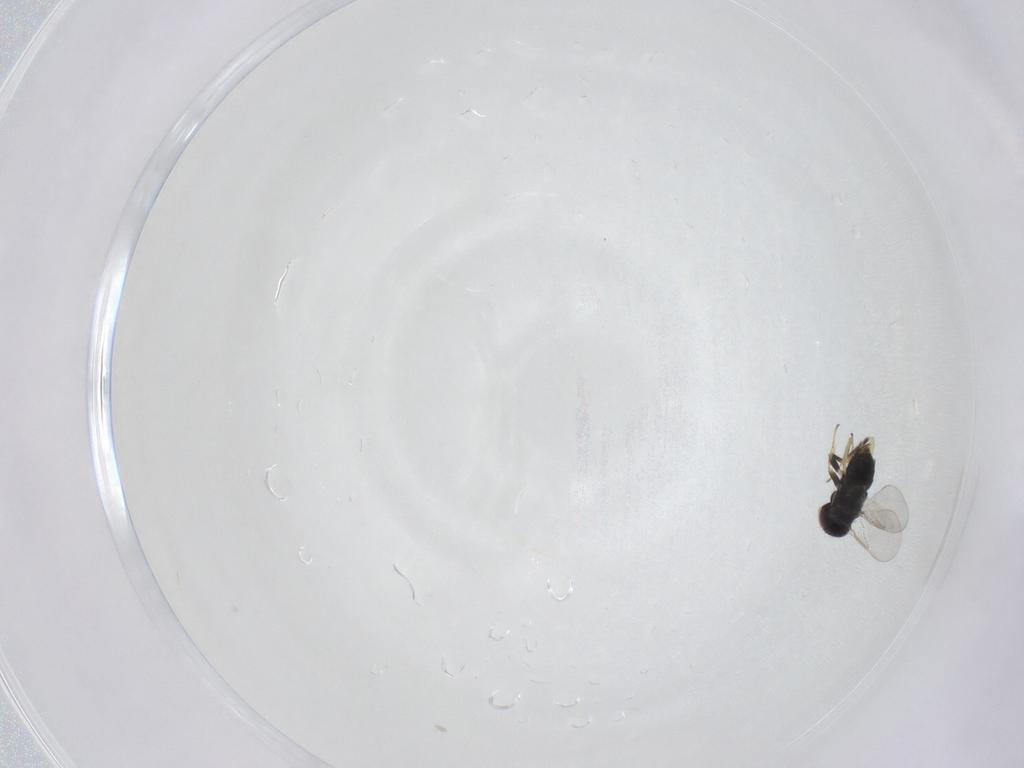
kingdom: Animalia
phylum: Arthropoda
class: Insecta
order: Hymenoptera
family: Aphelinidae
